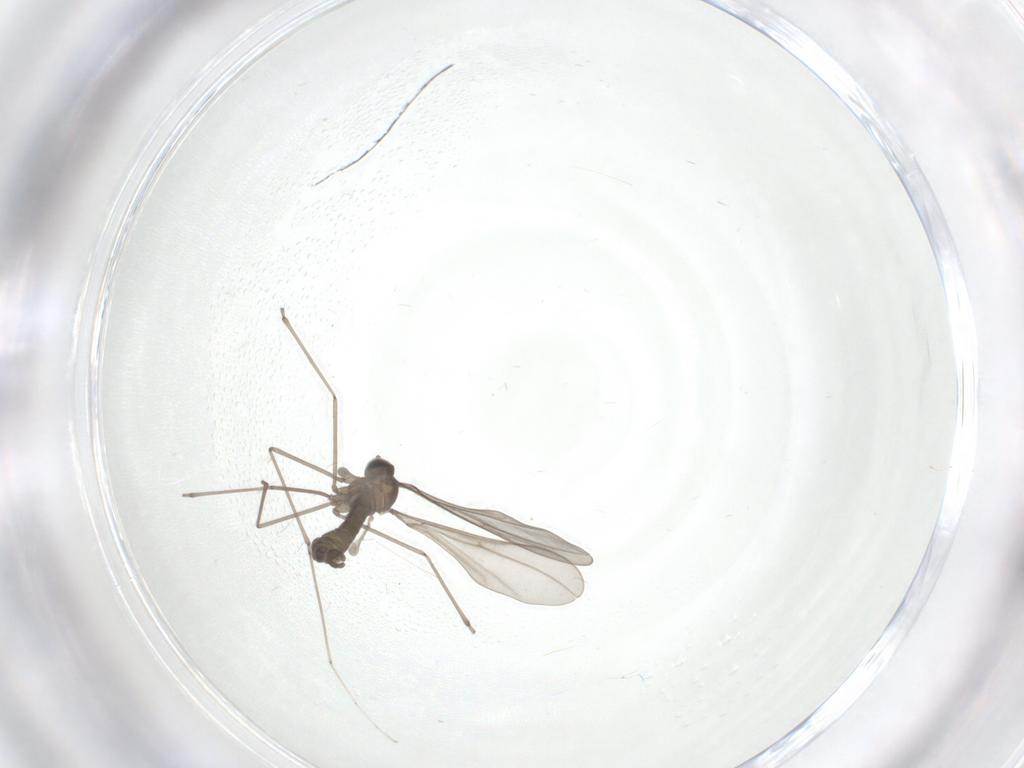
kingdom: Animalia
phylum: Arthropoda
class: Insecta
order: Diptera
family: Cecidomyiidae
